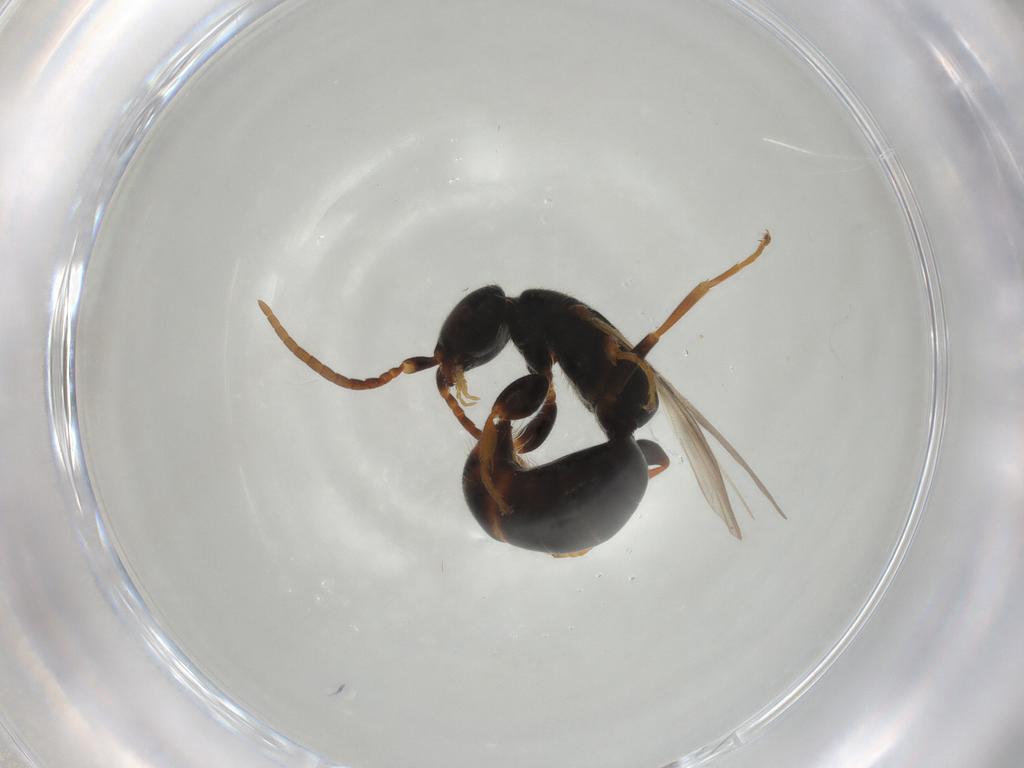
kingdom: Animalia
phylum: Arthropoda
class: Insecta
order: Hymenoptera
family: Bethylidae
